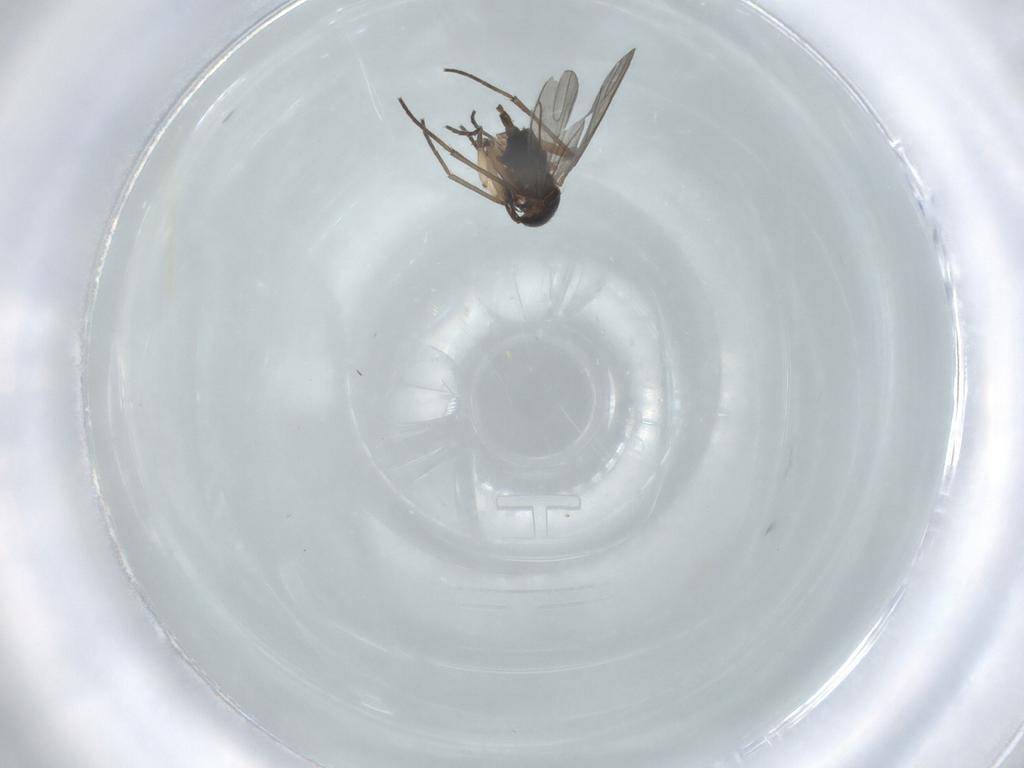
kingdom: Animalia
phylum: Arthropoda
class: Insecta
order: Diptera
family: Sciaridae
